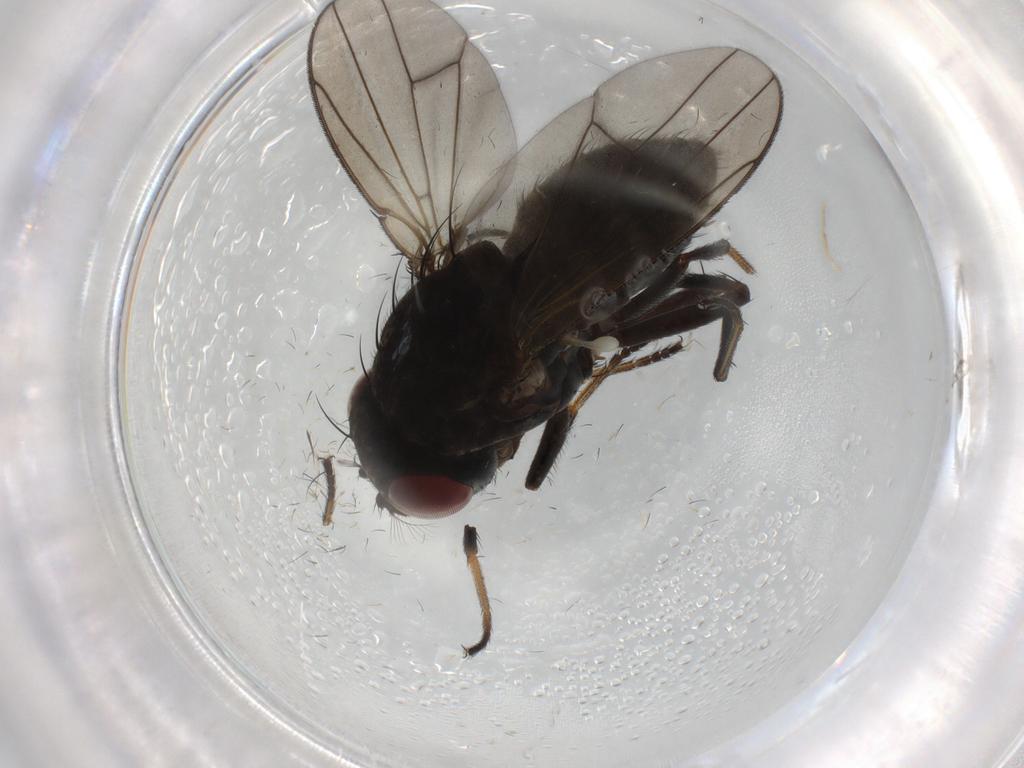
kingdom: Animalia
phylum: Arthropoda
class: Insecta
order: Diptera
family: Ephydridae
